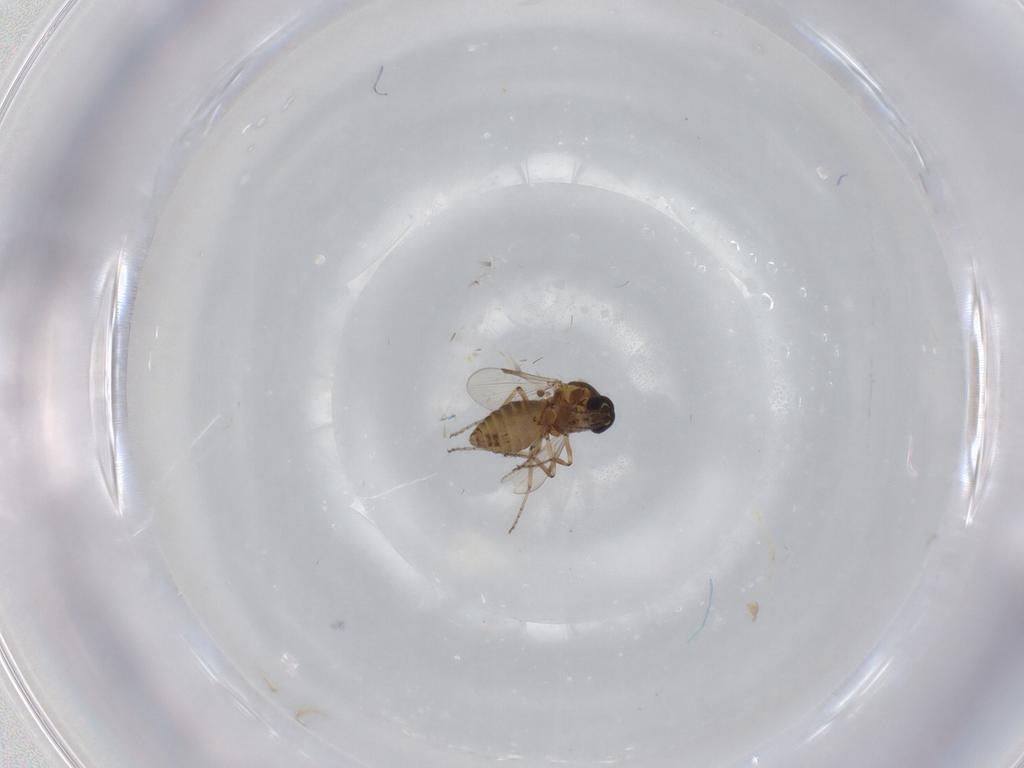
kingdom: Animalia
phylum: Arthropoda
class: Insecta
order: Diptera
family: Ceratopogonidae
